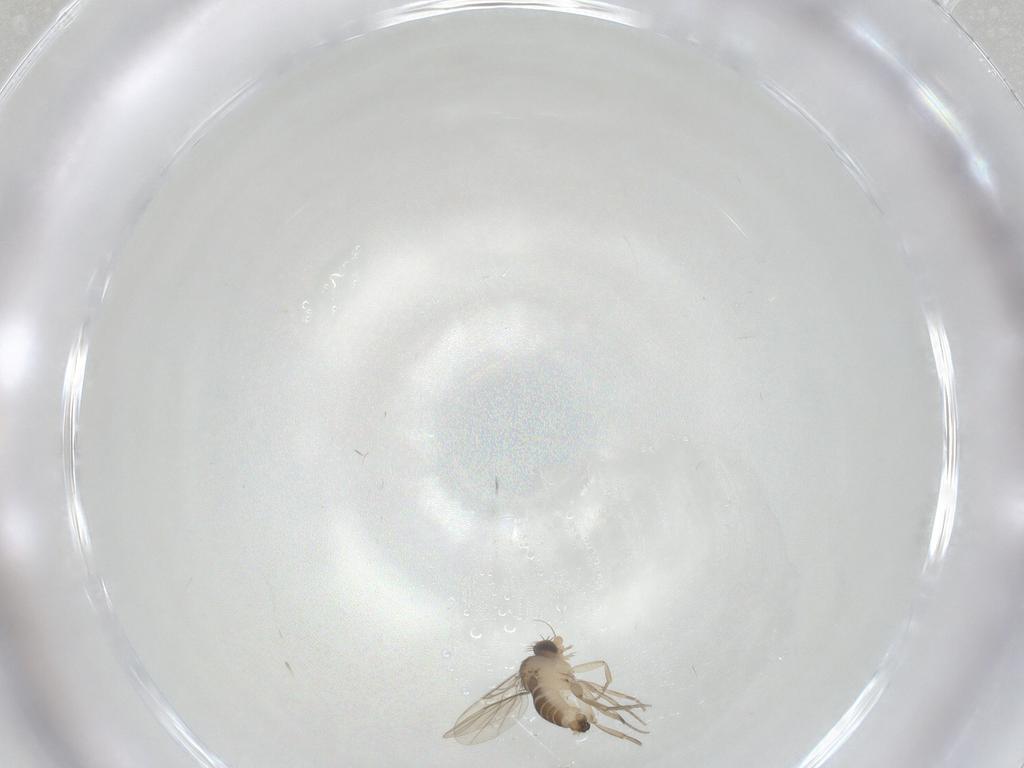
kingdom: Animalia
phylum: Arthropoda
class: Insecta
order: Diptera
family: Phoridae
